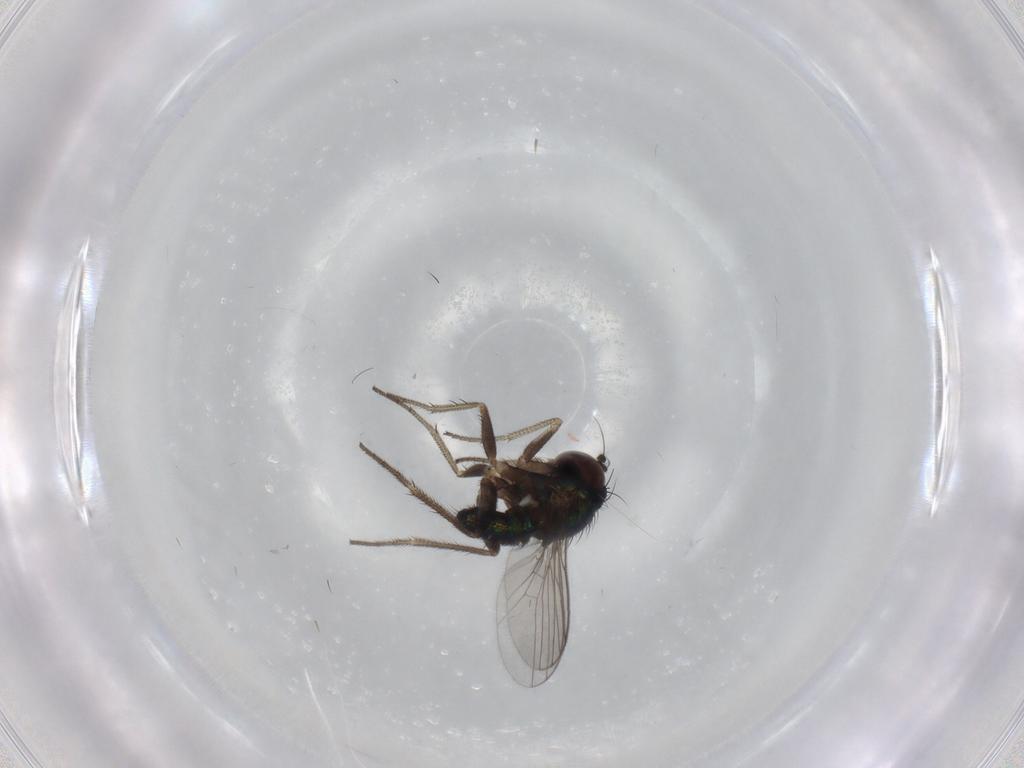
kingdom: Animalia
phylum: Arthropoda
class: Insecta
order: Diptera
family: Dolichopodidae
